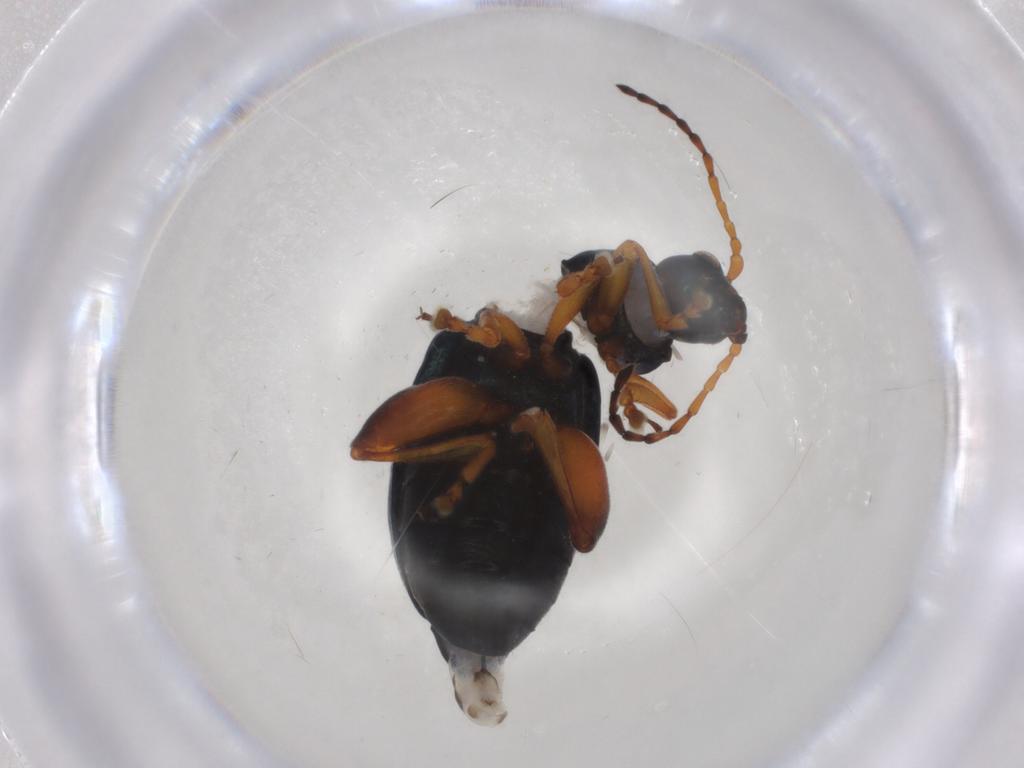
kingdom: Animalia
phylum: Arthropoda
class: Insecta
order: Coleoptera
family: Chrysomelidae
